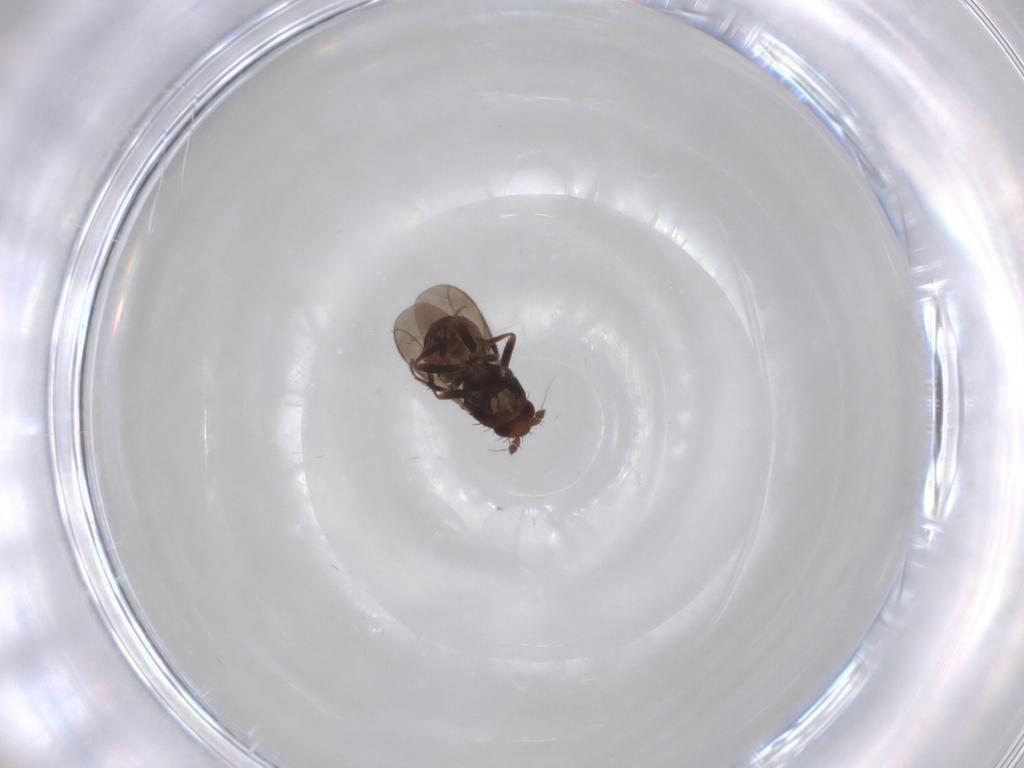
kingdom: Animalia
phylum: Arthropoda
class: Insecta
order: Diptera
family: Sphaeroceridae
